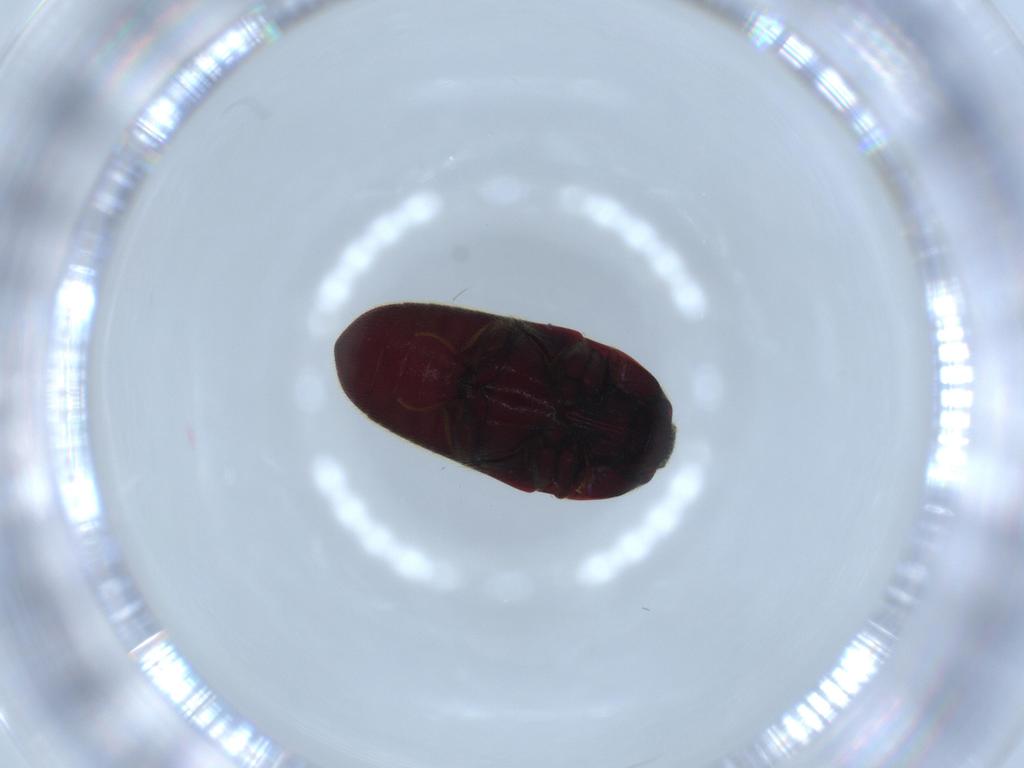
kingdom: Animalia
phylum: Arthropoda
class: Insecta
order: Coleoptera
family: Throscidae
